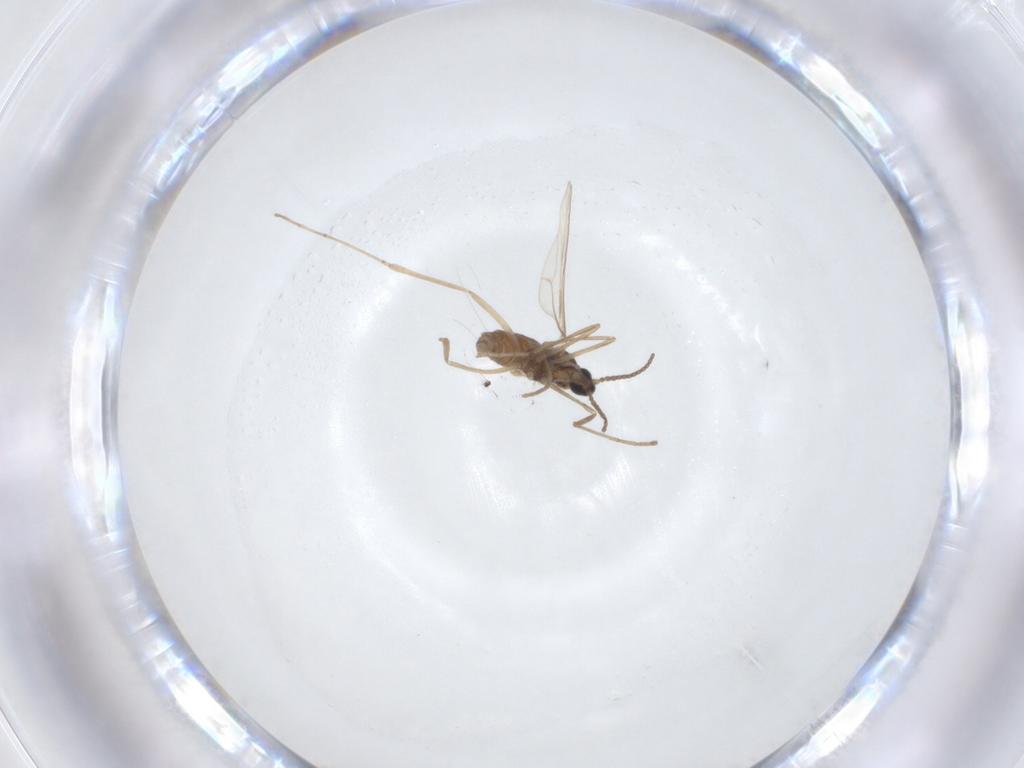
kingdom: Animalia
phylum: Arthropoda
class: Insecta
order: Diptera
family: Cecidomyiidae
